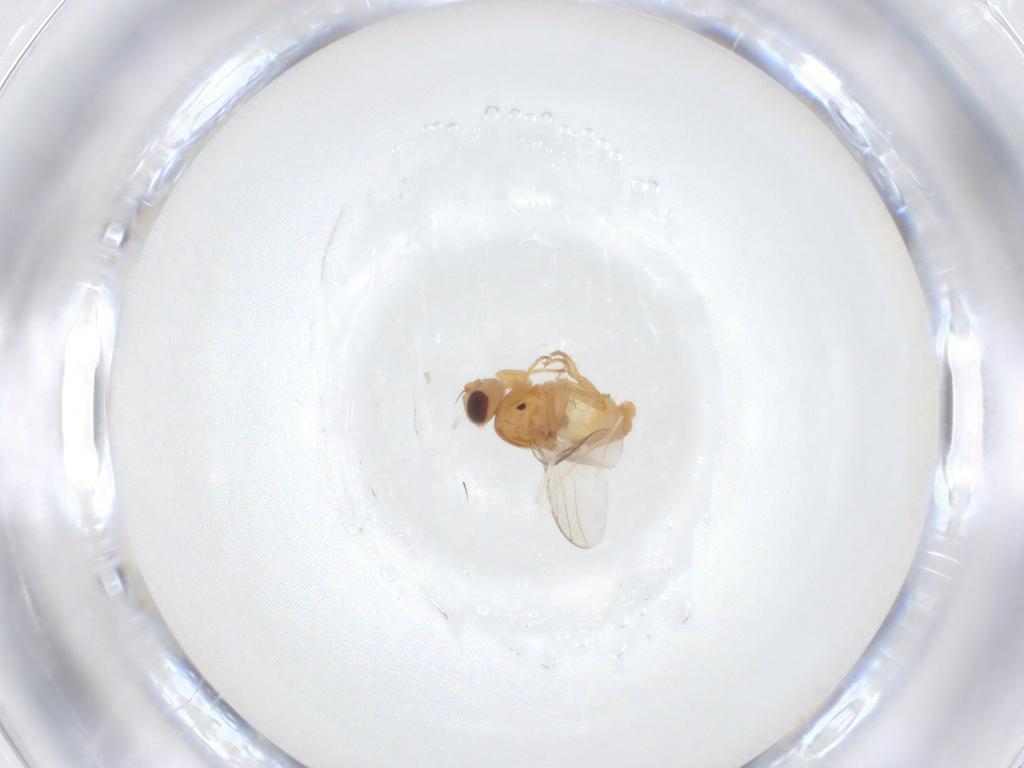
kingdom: Animalia
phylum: Arthropoda
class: Insecta
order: Diptera
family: Chloropidae
